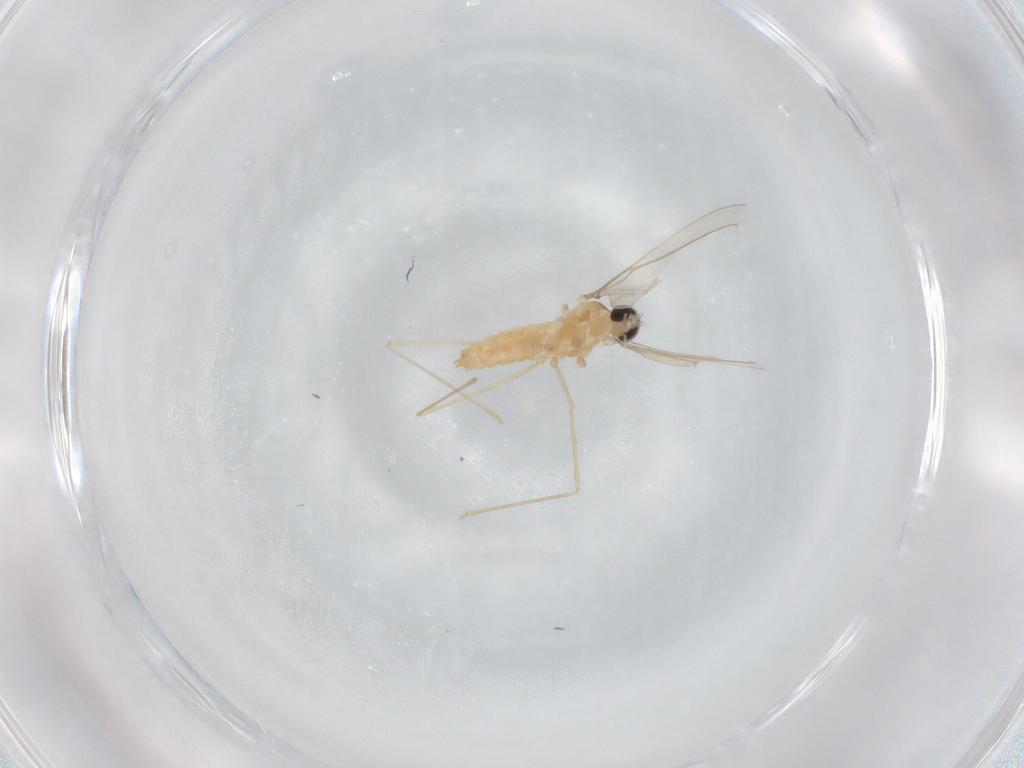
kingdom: Animalia
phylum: Arthropoda
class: Insecta
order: Diptera
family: Cecidomyiidae
